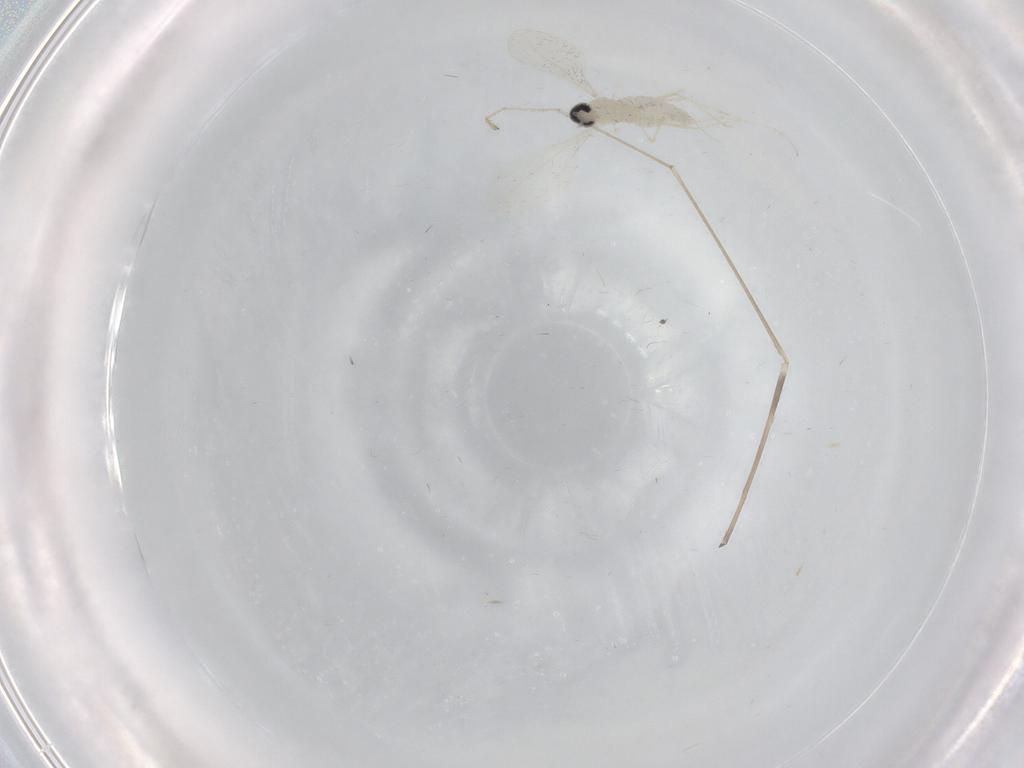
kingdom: Animalia
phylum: Arthropoda
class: Insecta
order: Diptera
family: Cecidomyiidae
